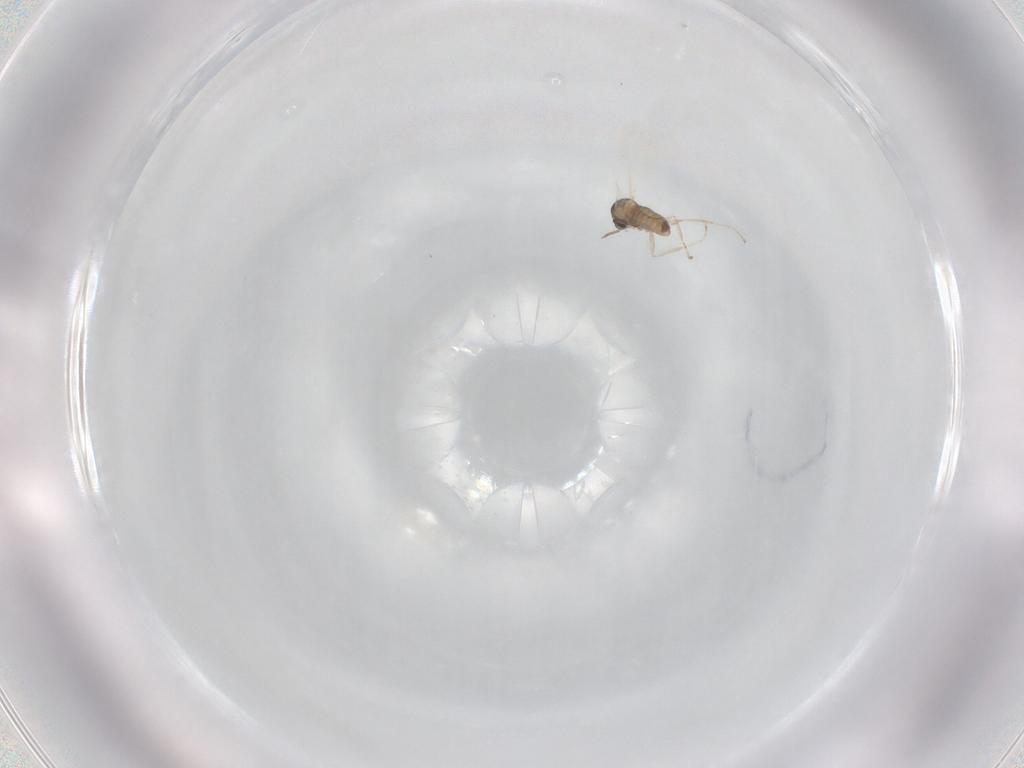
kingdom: Animalia
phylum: Arthropoda
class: Insecta
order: Diptera
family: Cecidomyiidae
